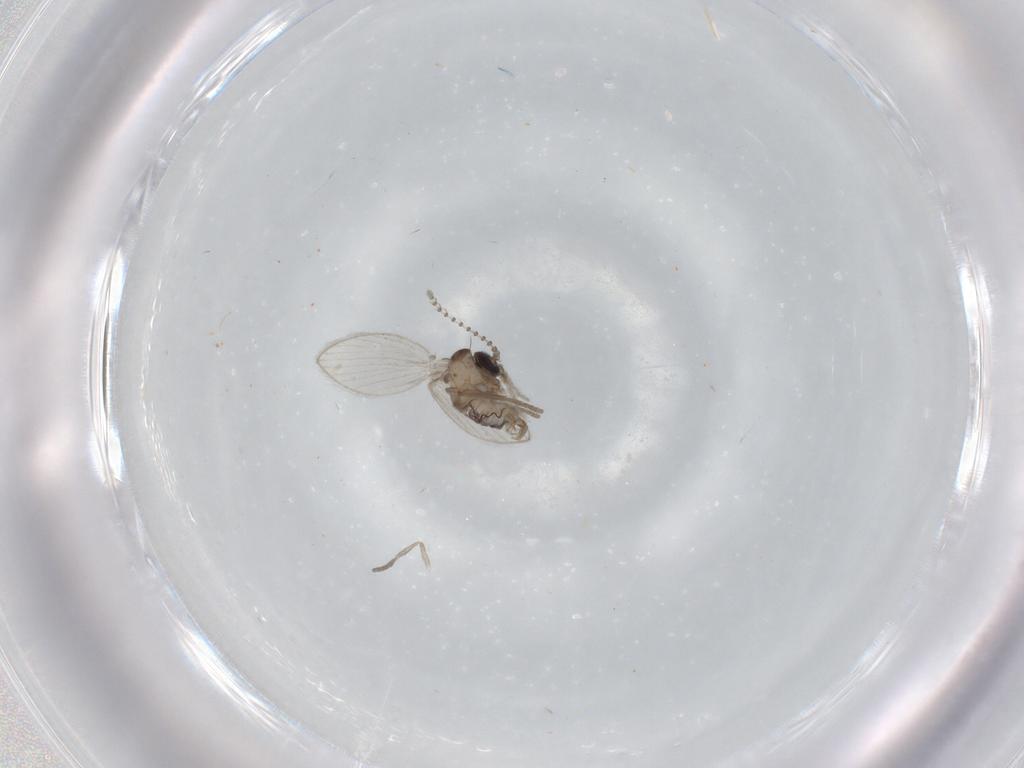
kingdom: Animalia
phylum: Arthropoda
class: Insecta
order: Diptera
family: Psychodidae
